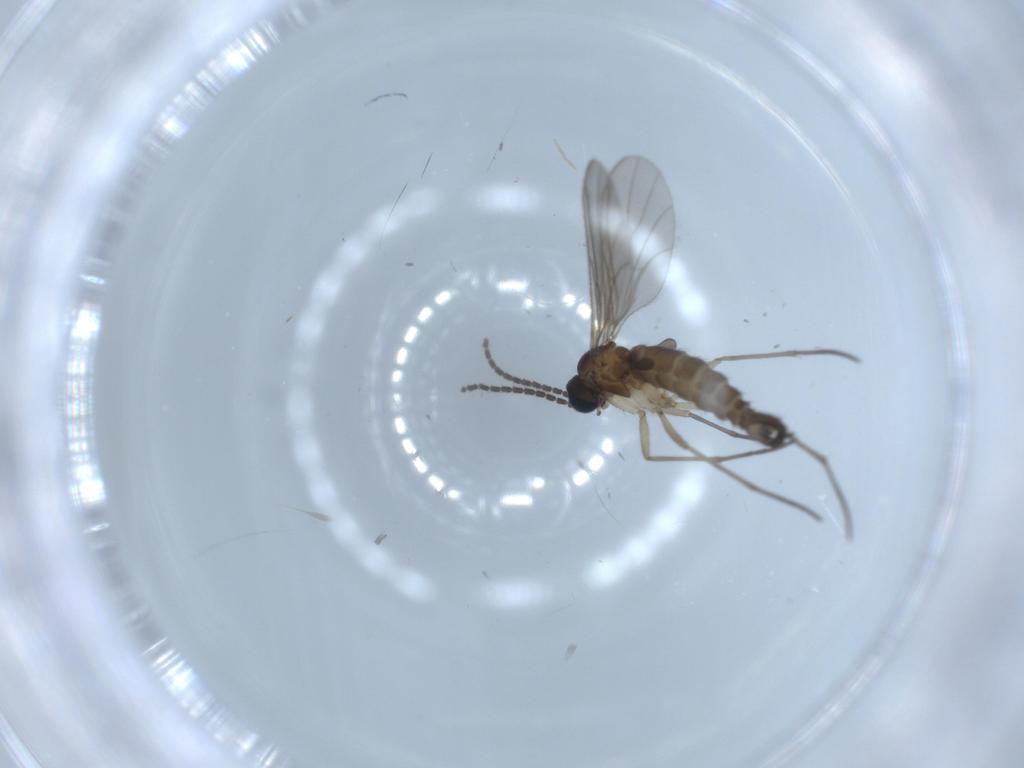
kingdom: Animalia
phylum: Arthropoda
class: Insecta
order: Diptera
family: Sciaridae
